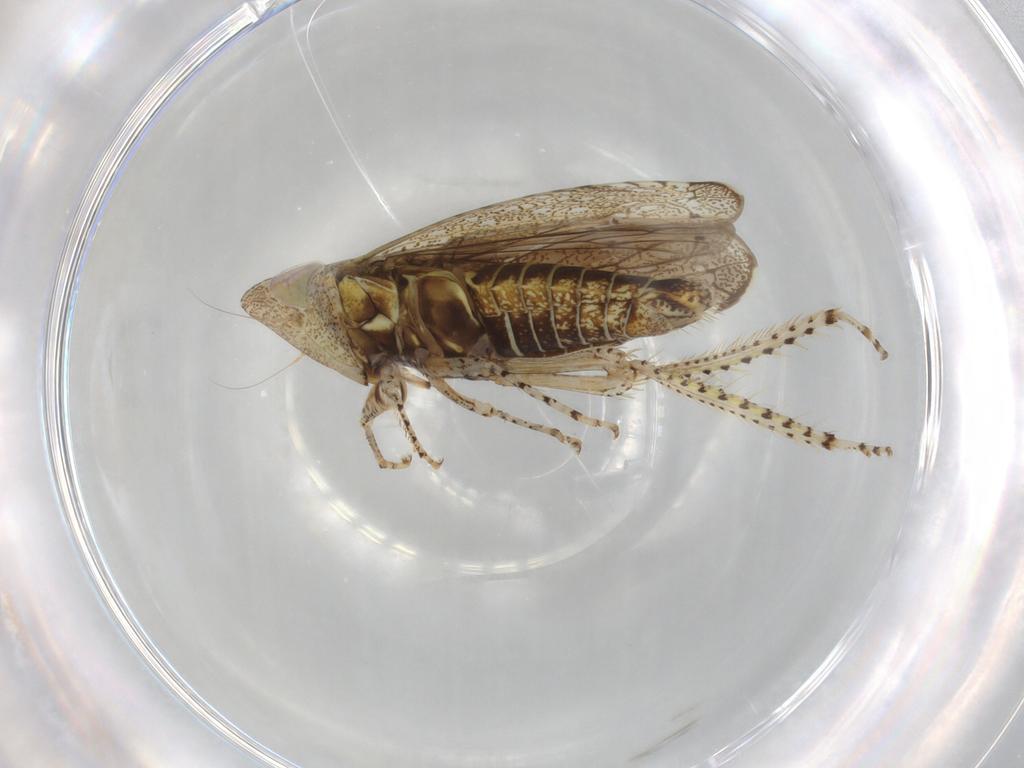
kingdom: Animalia
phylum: Arthropoda
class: Insecta
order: Hemiptera
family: Cicadellidae
